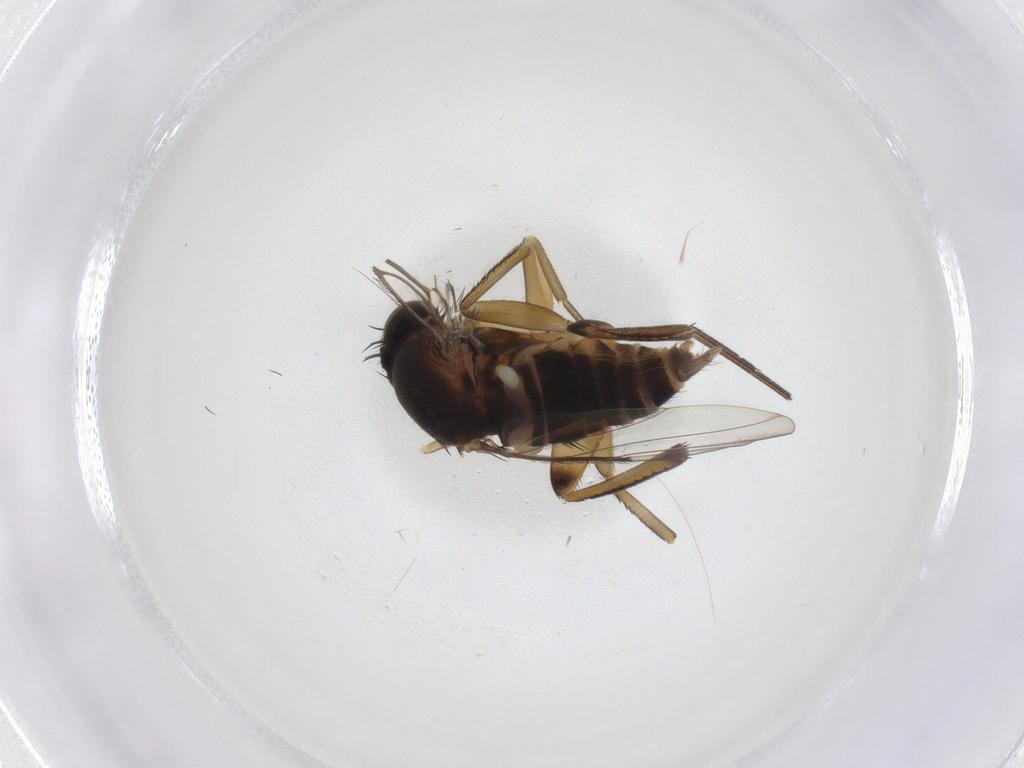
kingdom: Animalia
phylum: Arthropoda
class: Insecta
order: Diptera
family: Phoridae
